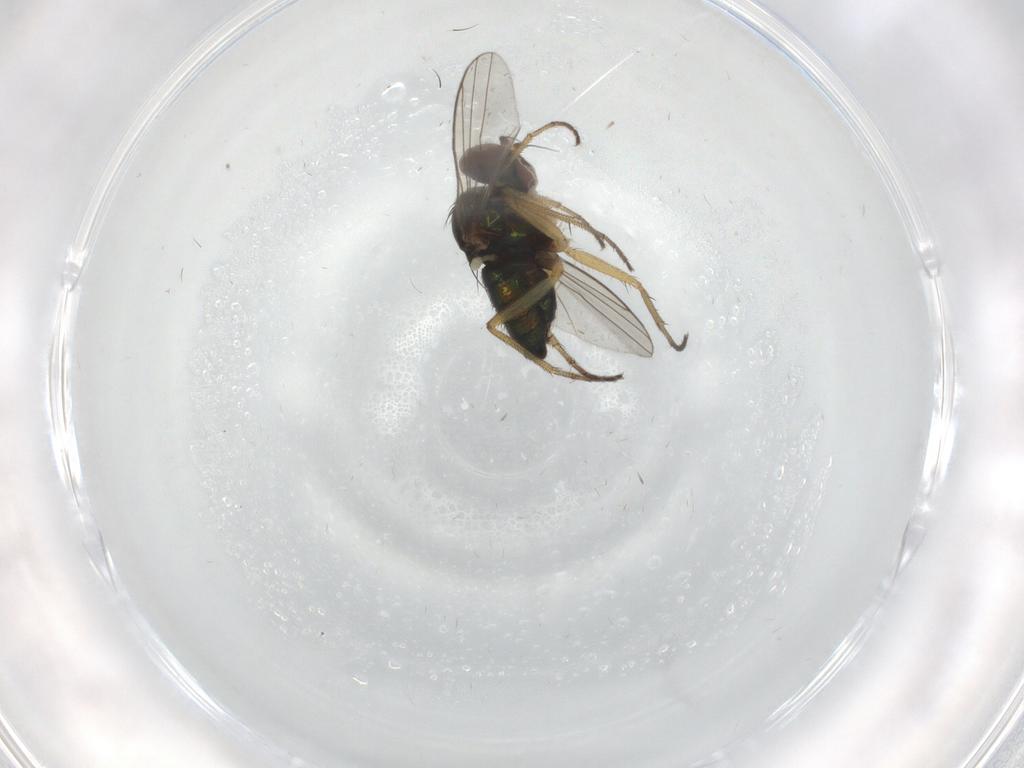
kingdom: Animalia
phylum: Arthropoda
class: Insecta
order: Diptera
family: Dolichopodidae
